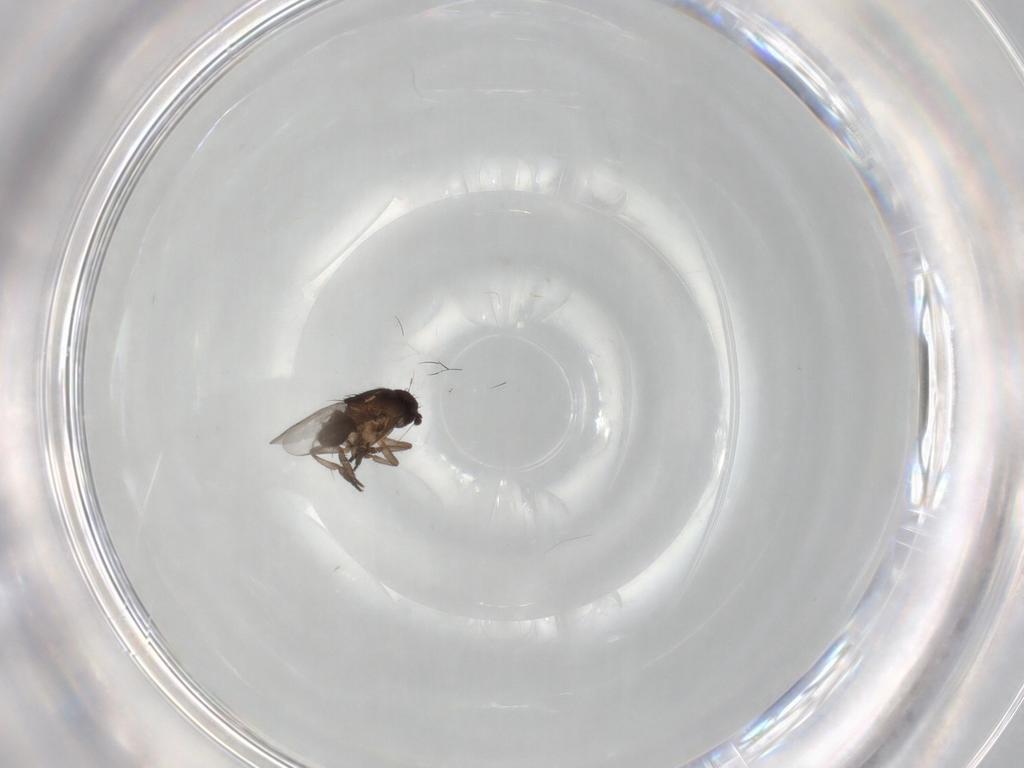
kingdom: Animalia
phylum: Arthropoda
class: Insecta
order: Diptera
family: Sphaeroceridae
